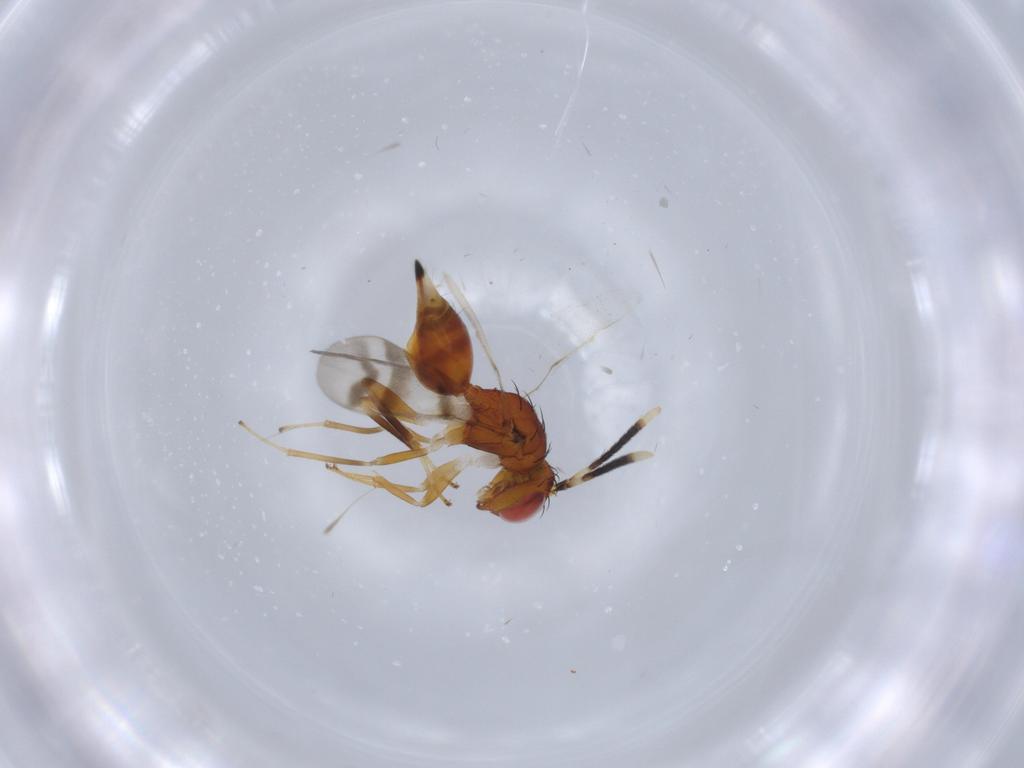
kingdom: Animalia
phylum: Arthropoda
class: Insecta
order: Hymenoptera
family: Diparidae
